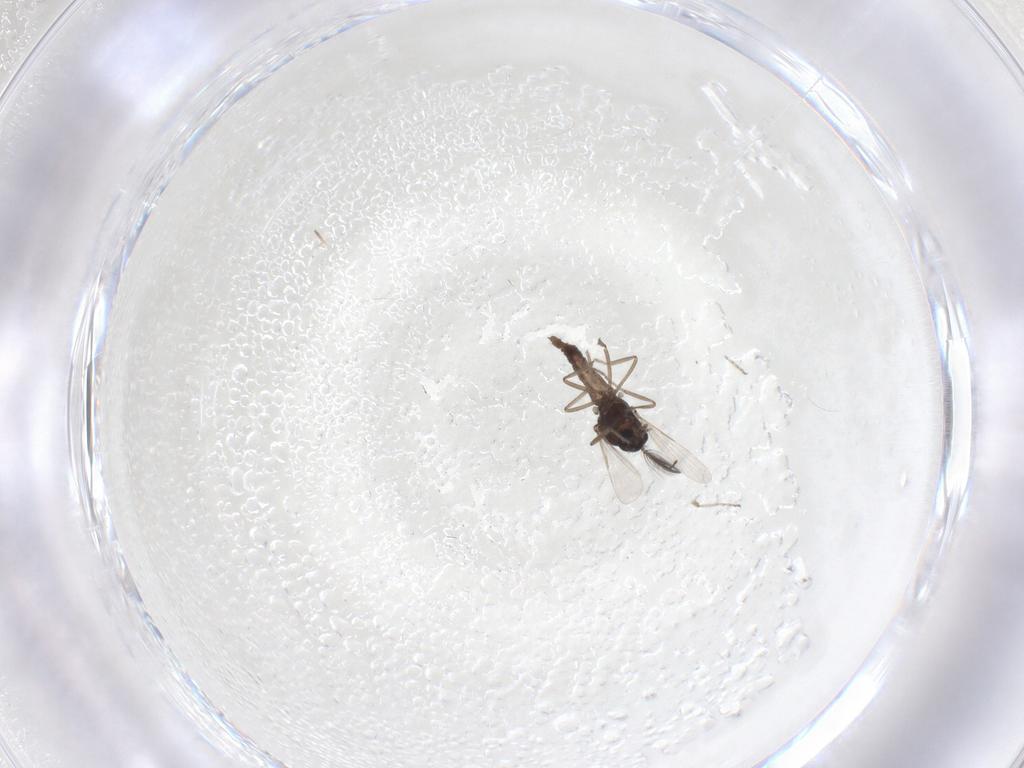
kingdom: Animalia
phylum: Arthropoda
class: Insecta
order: Diptera
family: Ceratopogonidae
